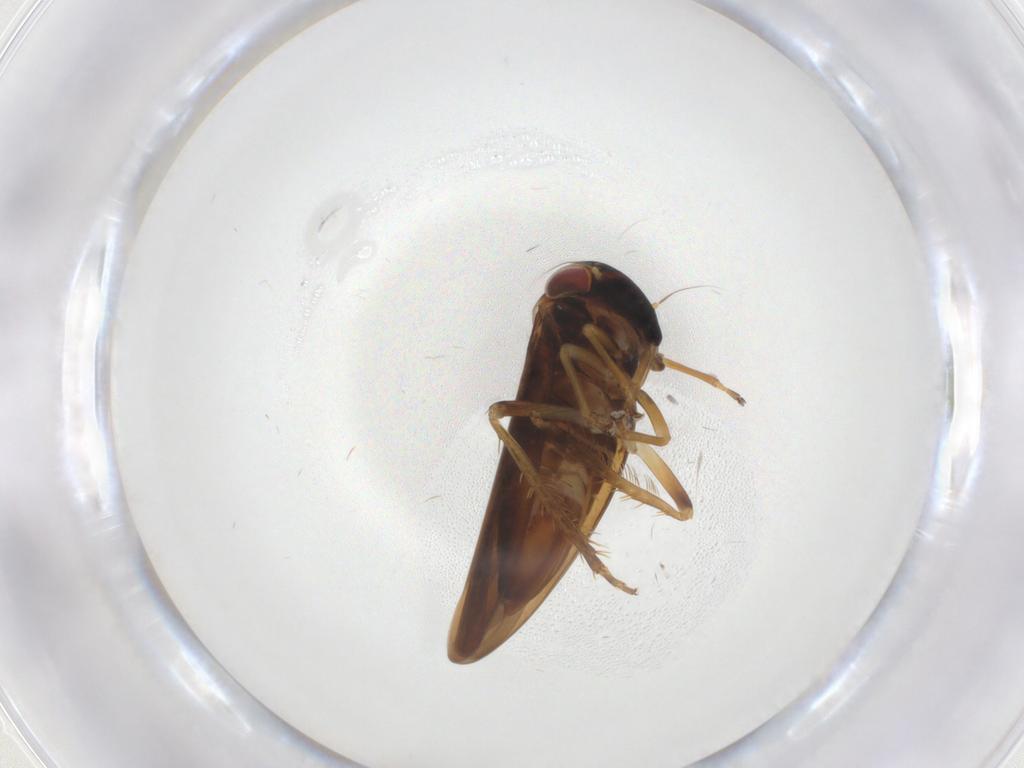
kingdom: Animalia
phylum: Arthropoda
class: Insecta
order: Hemiptera
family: Cicadellidae
